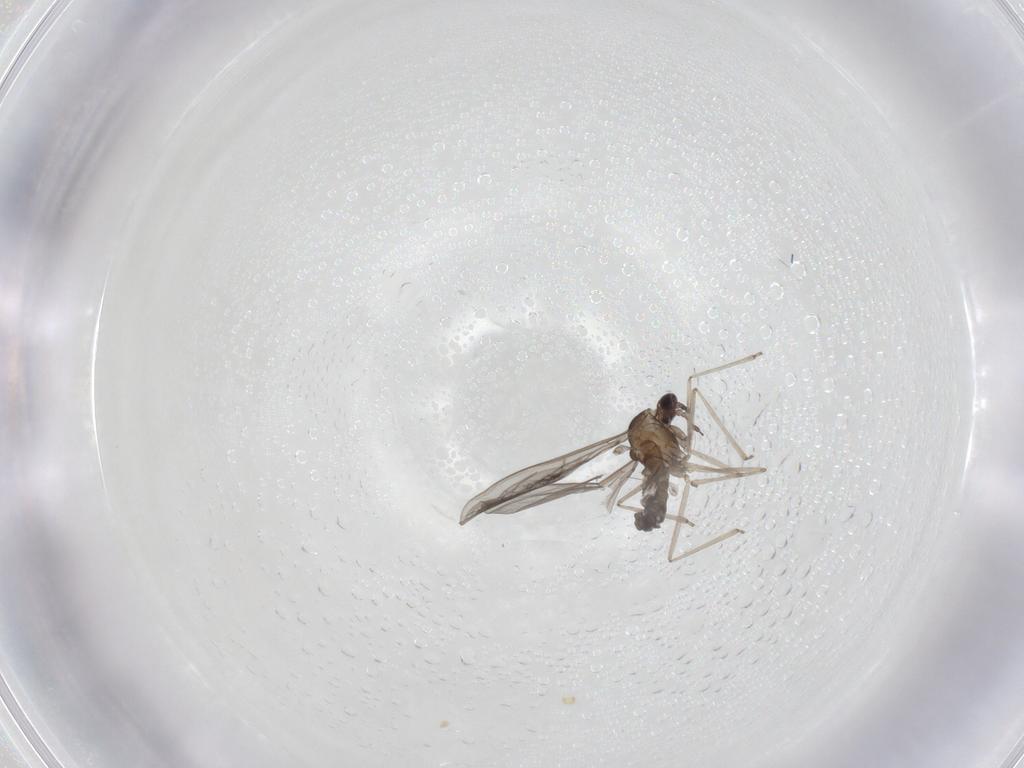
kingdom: Animalia
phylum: Arthropoda
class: Insecta
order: Diptera
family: Cecidomyiidae
